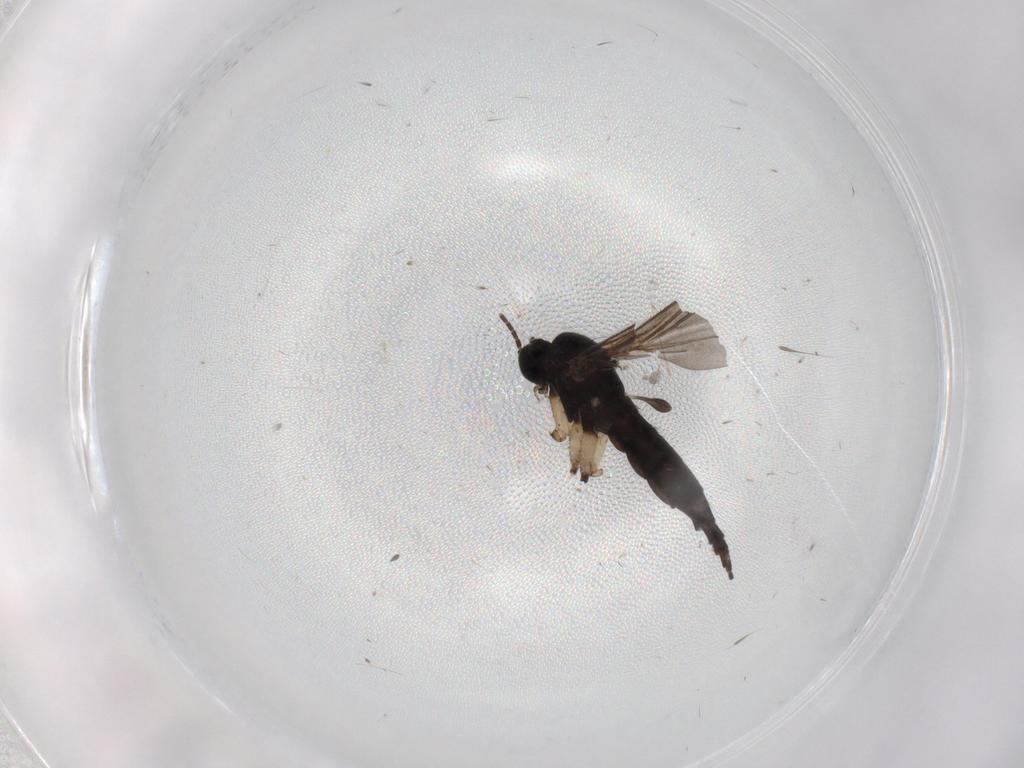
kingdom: Animalia
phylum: Arthropoda
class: Insecta
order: Diptera
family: Sciaridae
